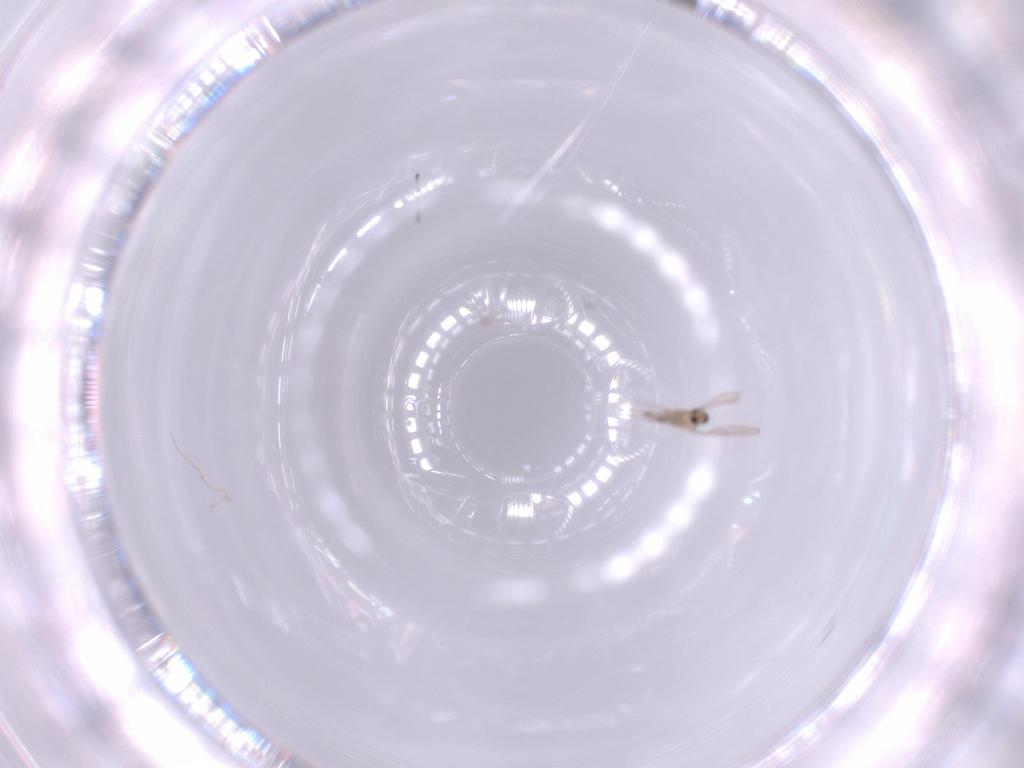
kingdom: Animalia
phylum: Arthropoda
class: Insecta
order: Diptera
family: Cecidomyiidae
